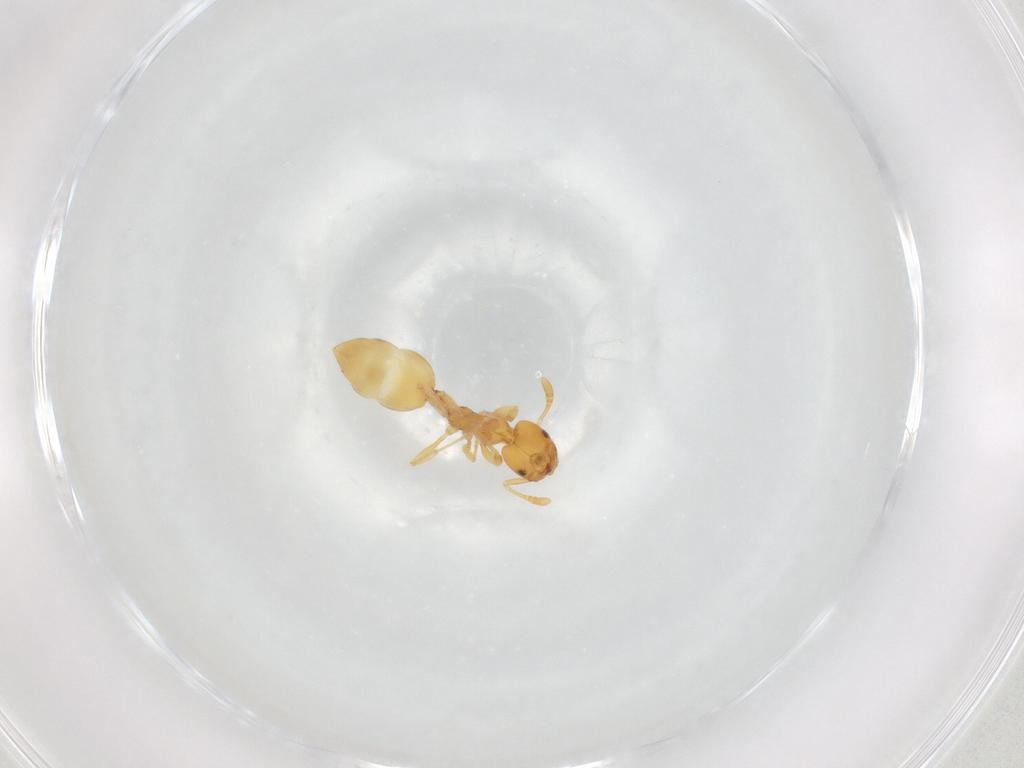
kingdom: Animalia
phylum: Arthropoda
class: Insecta
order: Hymenoptera
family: Formicidae
